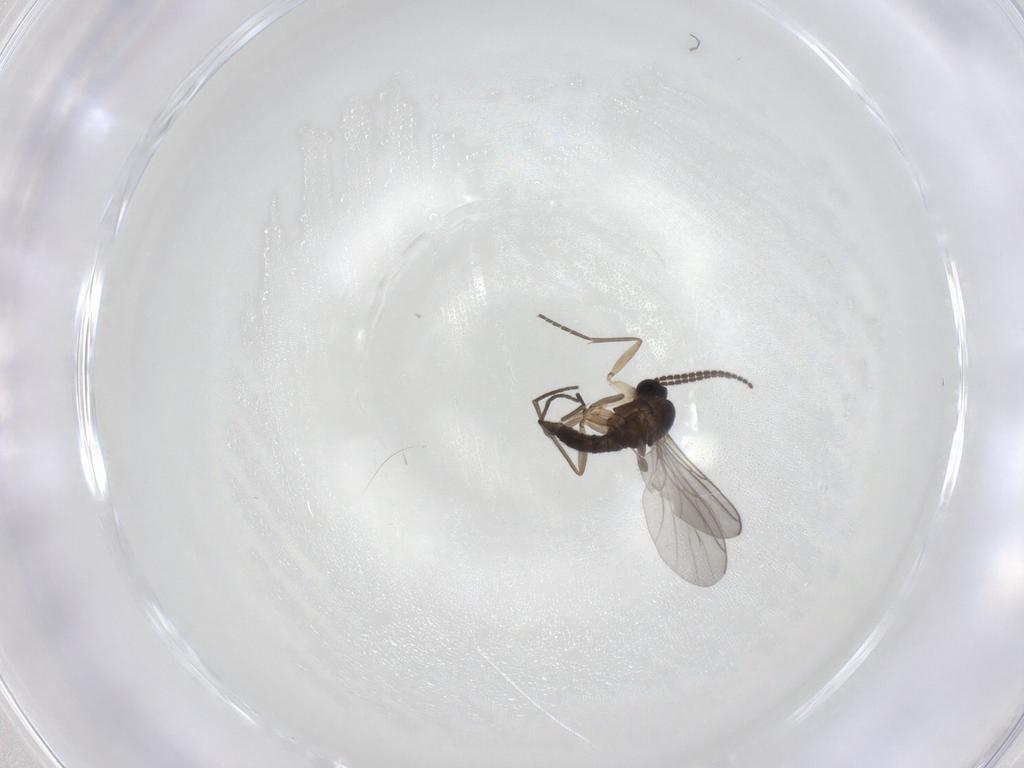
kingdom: Animalia
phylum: Arthropoda
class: Insecta
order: Diptera
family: Sciaridae
